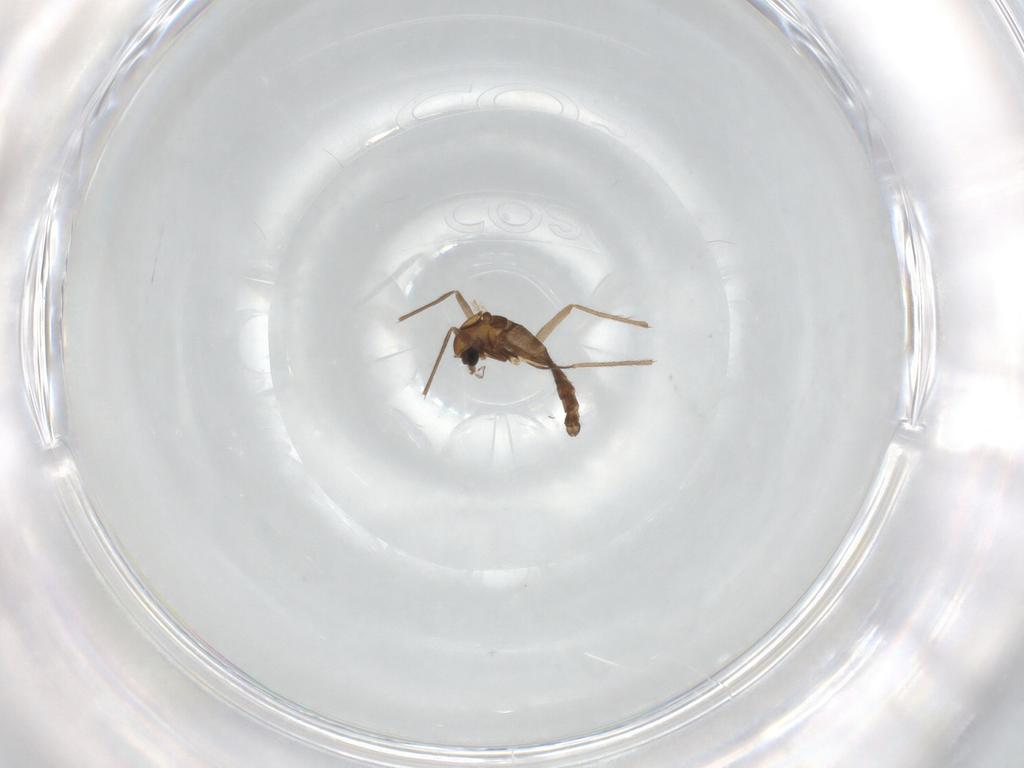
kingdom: Animalia
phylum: Arthropoda
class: Insecta
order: Diptera
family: Chironomidae
